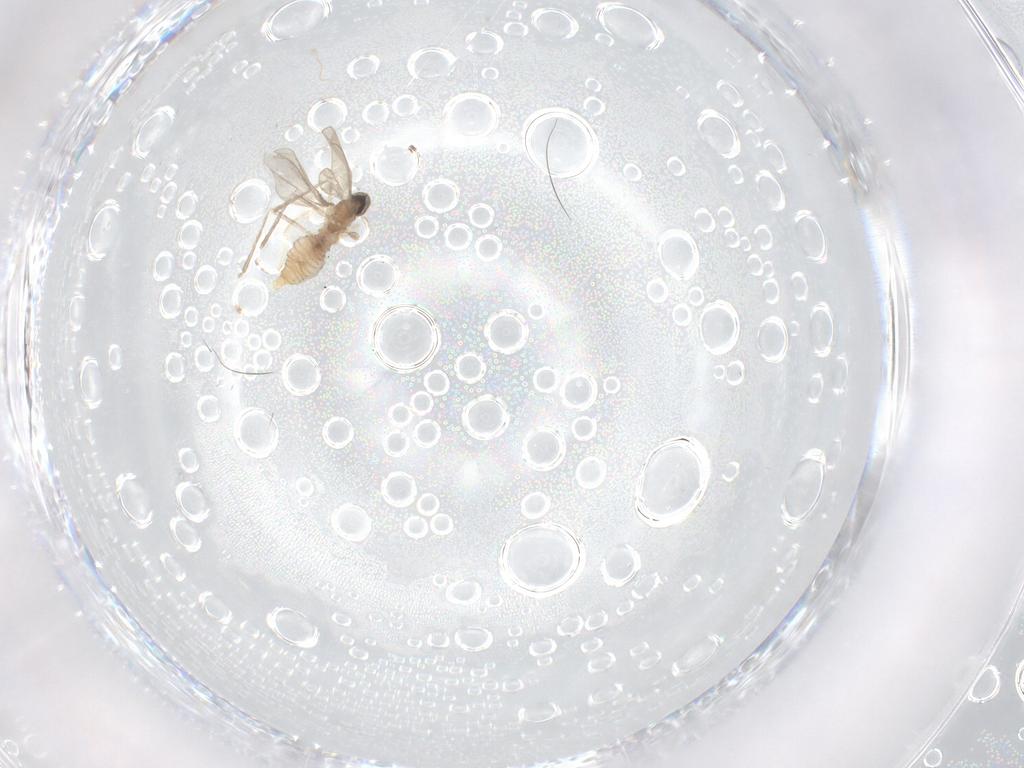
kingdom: Animalia
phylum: Arthropoda
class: Insecta
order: Diptera
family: Cecidomyiidae
